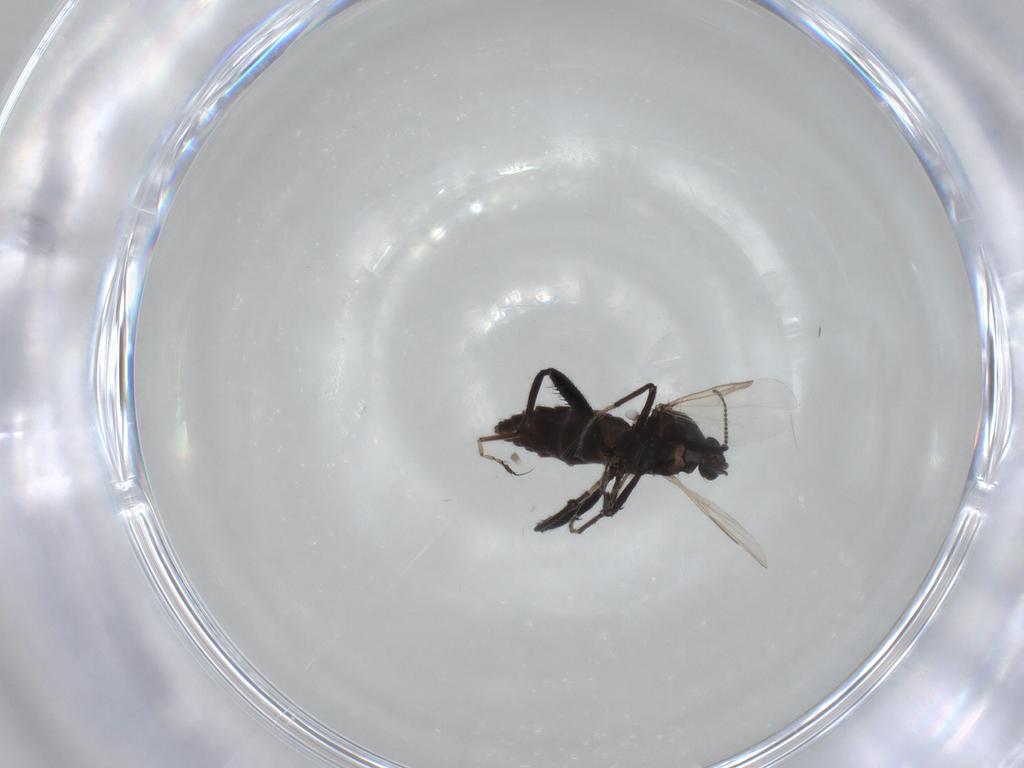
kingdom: Animalia
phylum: Arthropoda
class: Insecta
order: Diptera
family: Ceratopogonidae
